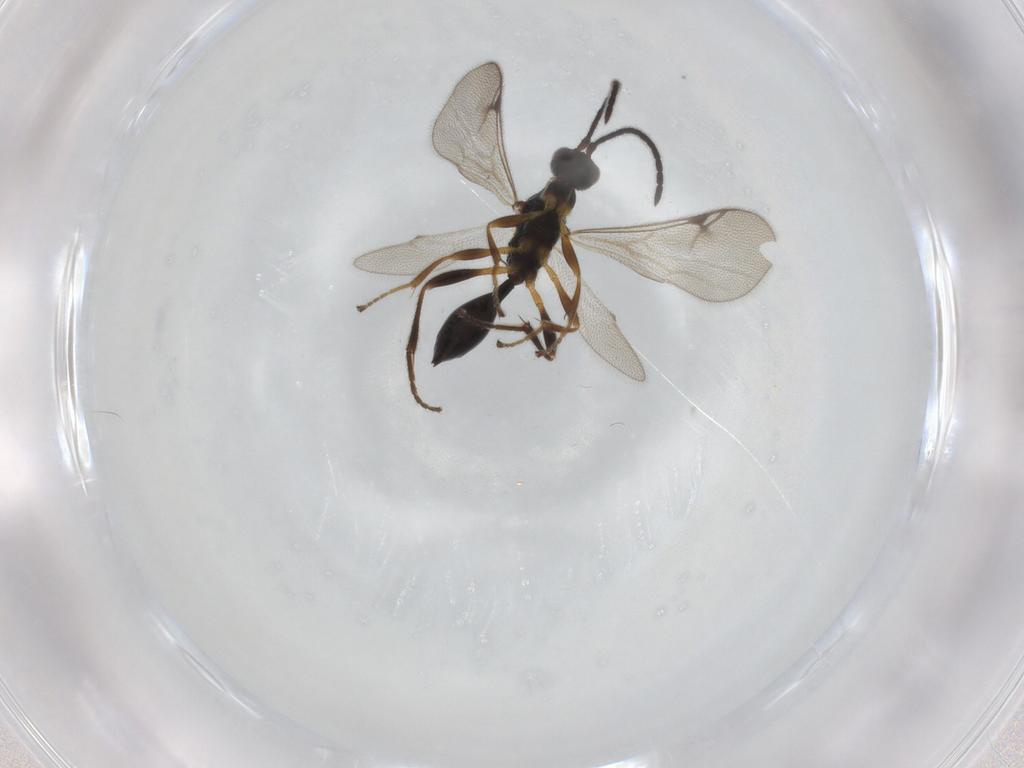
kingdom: Animalia
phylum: Arthropoda
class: Insecta
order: Hymenoptera
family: Proctotrupidae
